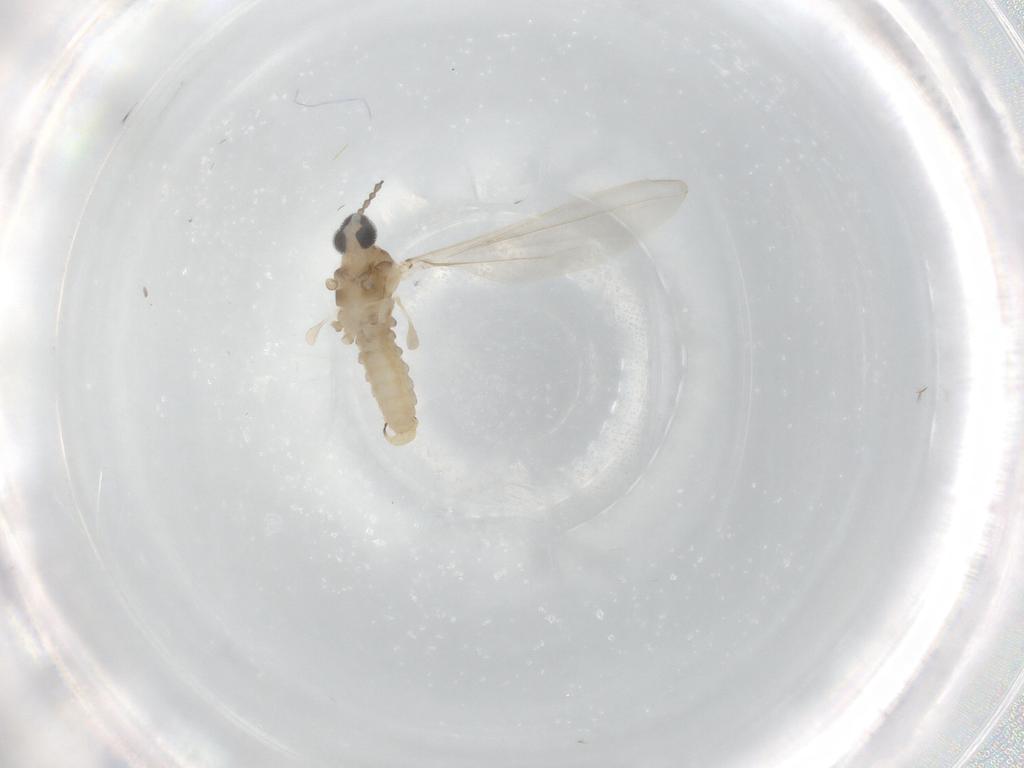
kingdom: Animalia
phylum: Arthropoda
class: Insecta
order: Diptera
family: Cecidomyiidae
